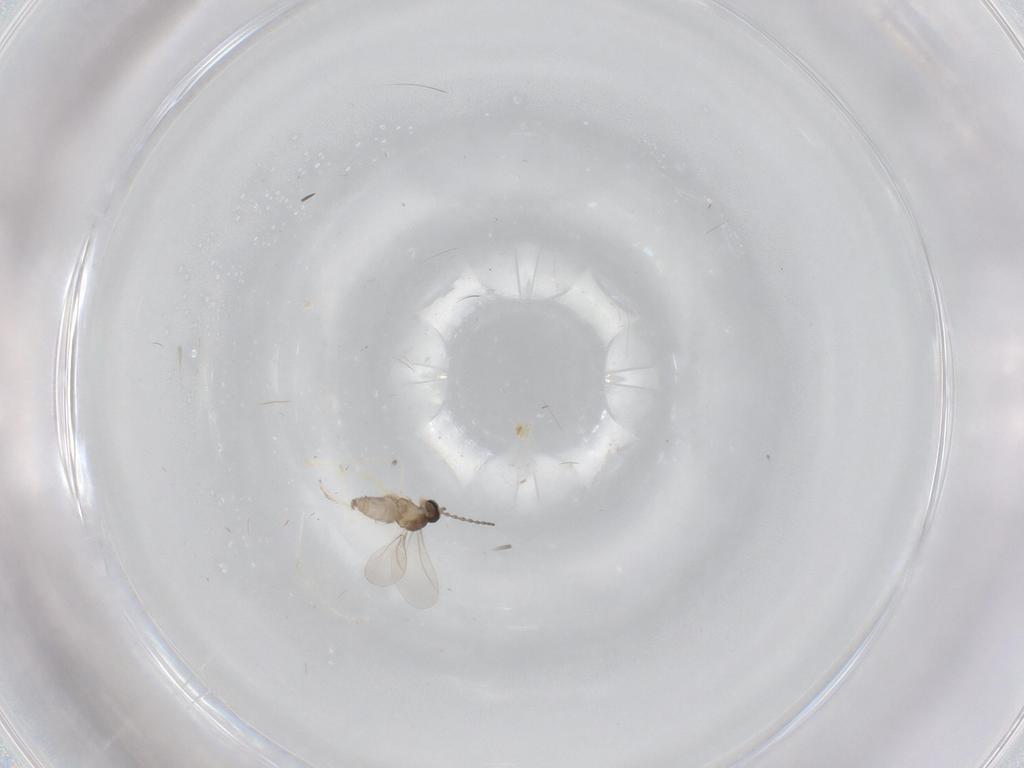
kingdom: Animalia
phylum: Arthropoda
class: Insecta
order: Diptera
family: Cecidomyiidae
